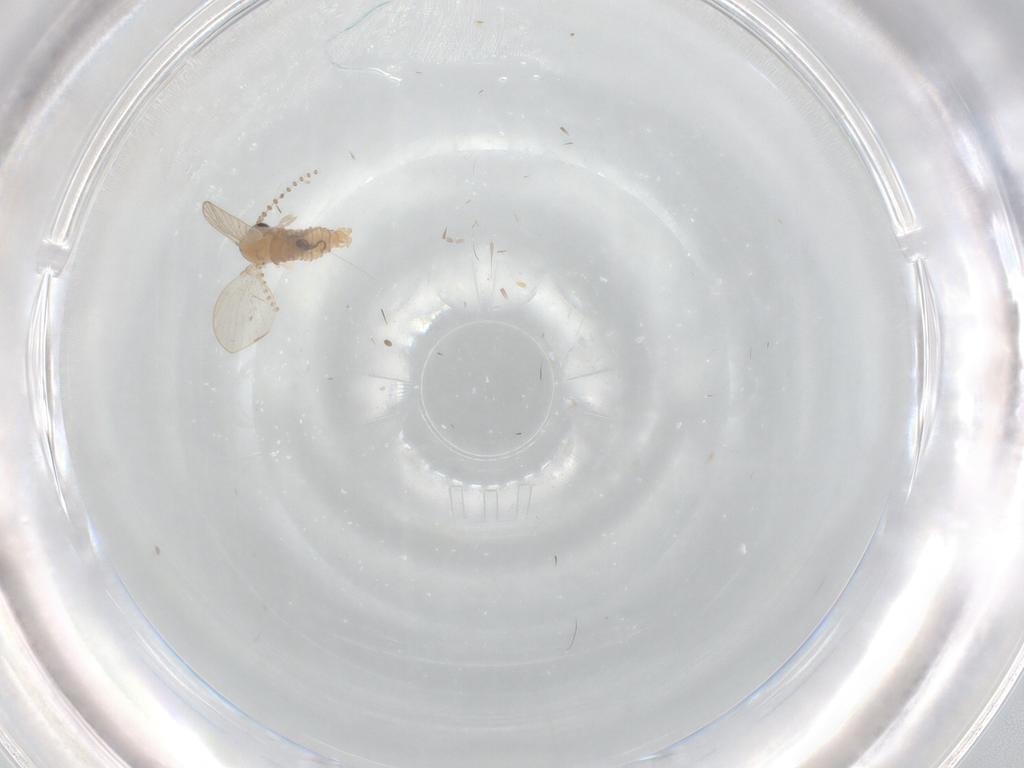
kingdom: Animalia
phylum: Arthropoda
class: Insecta
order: Diptera
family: Psychodidae
